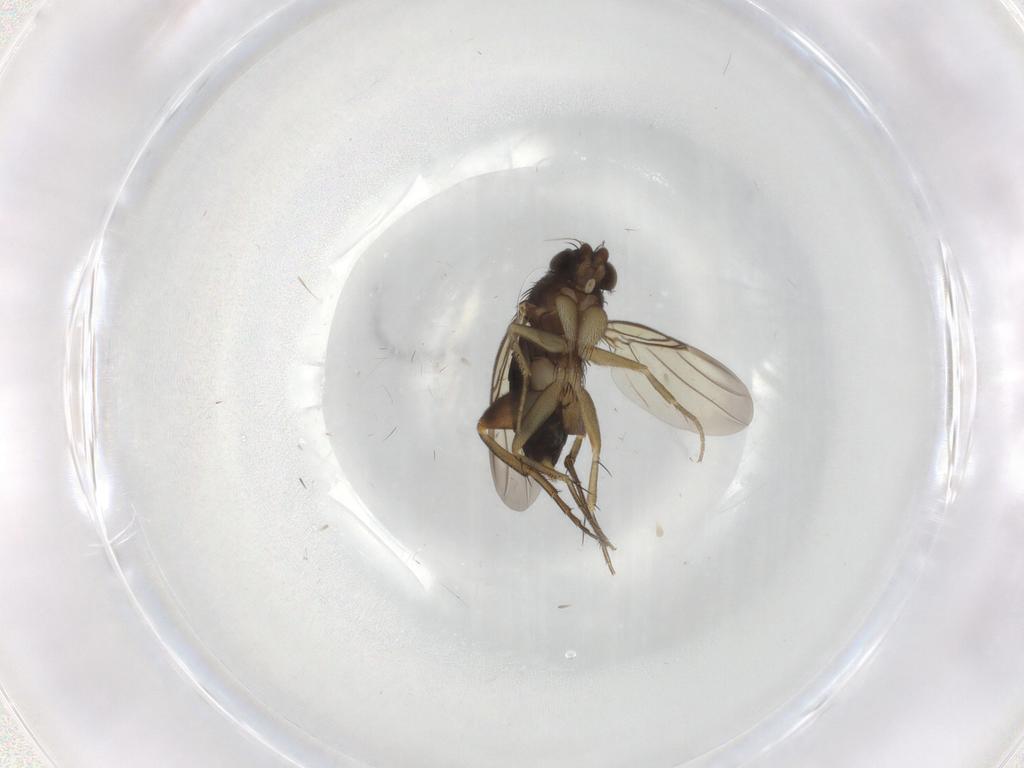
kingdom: Animalia
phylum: Arthropoda
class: Insecta
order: Diptera
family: Phoridae
